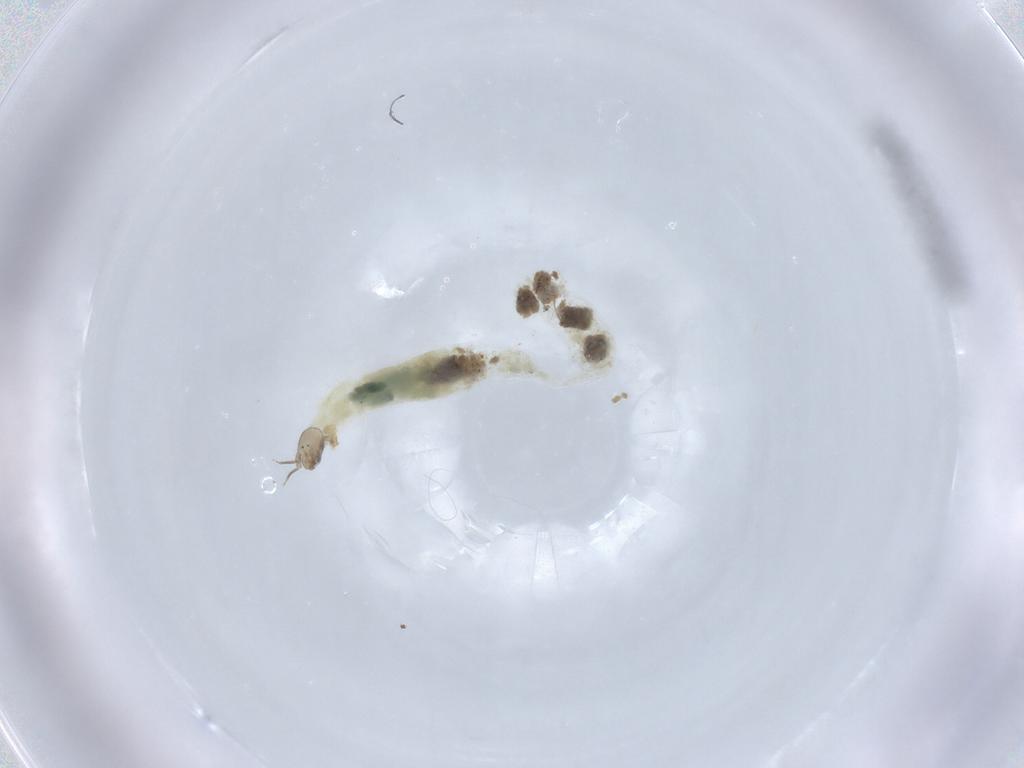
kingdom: Animalia
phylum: Arthropoda
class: Insecta
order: Diptera
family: Chironomidae
